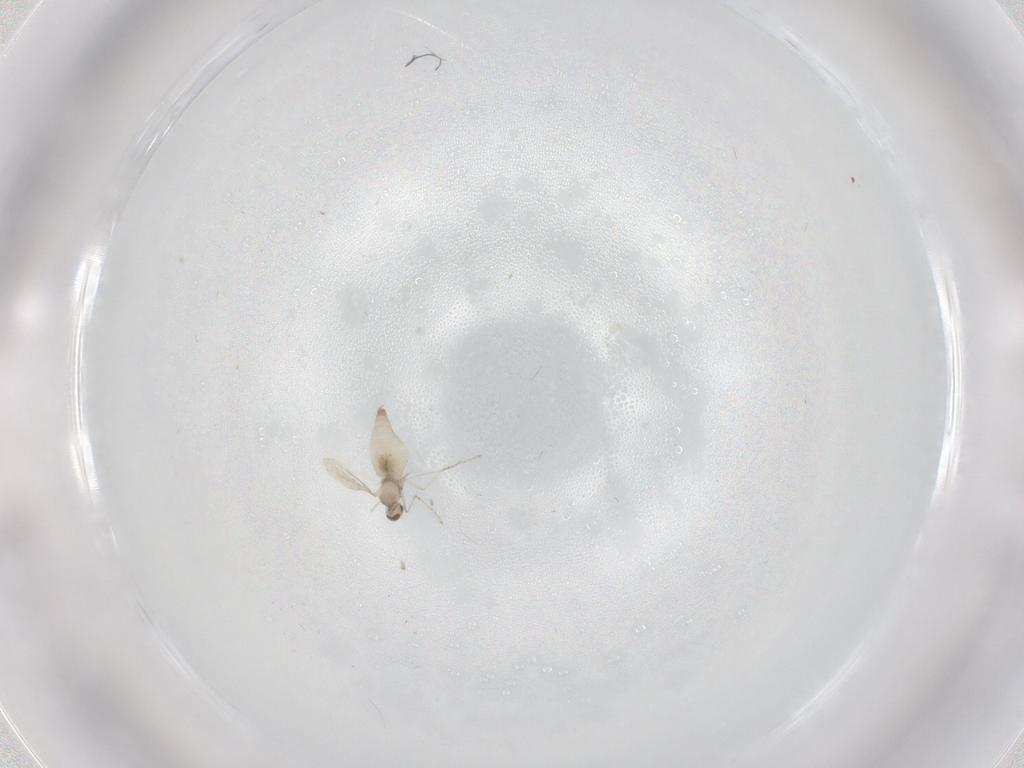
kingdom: Animalia
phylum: Arthropoda
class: Insecta
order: Diptera
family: Cecidomyiidae
